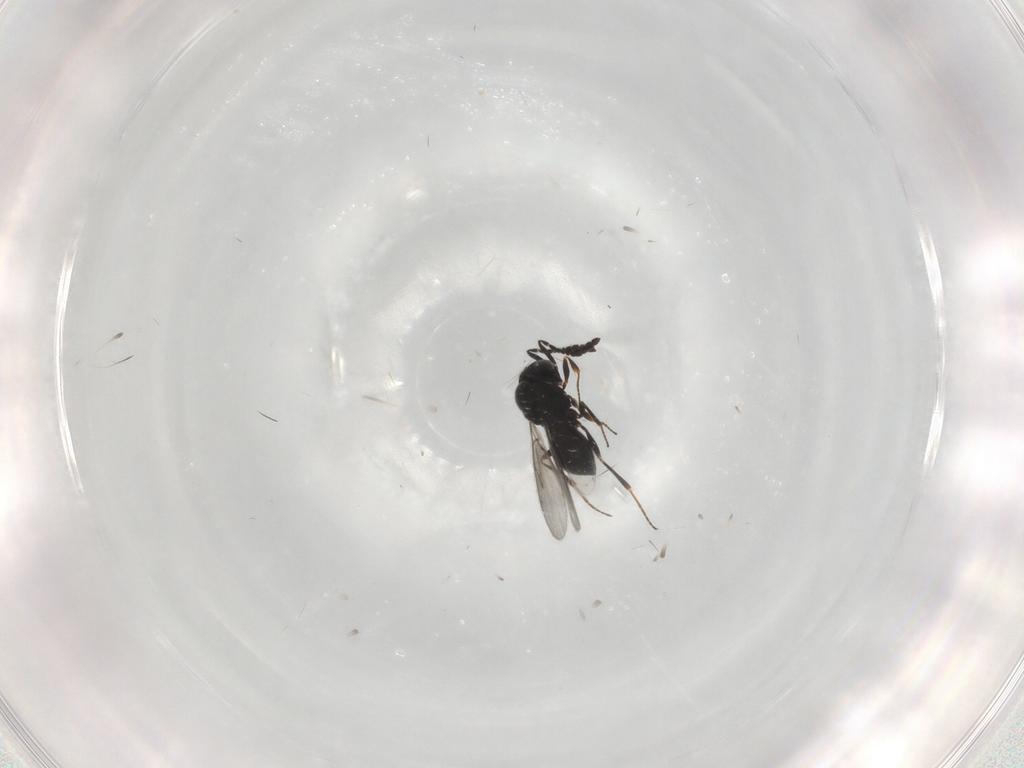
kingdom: Animalia
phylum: Arthropoda
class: Insecta
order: Hymenoptera
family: Scelionidae
